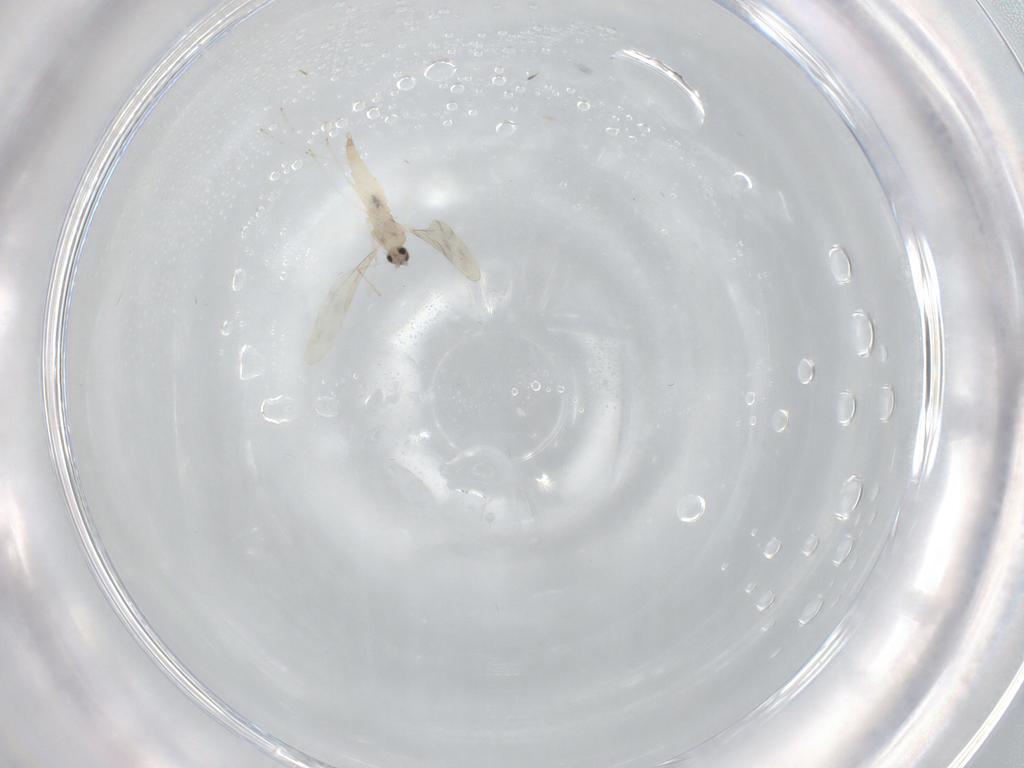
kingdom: Animalia
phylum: Arthropoda
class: Insecta
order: Diptera
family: Cecidomyiidae
